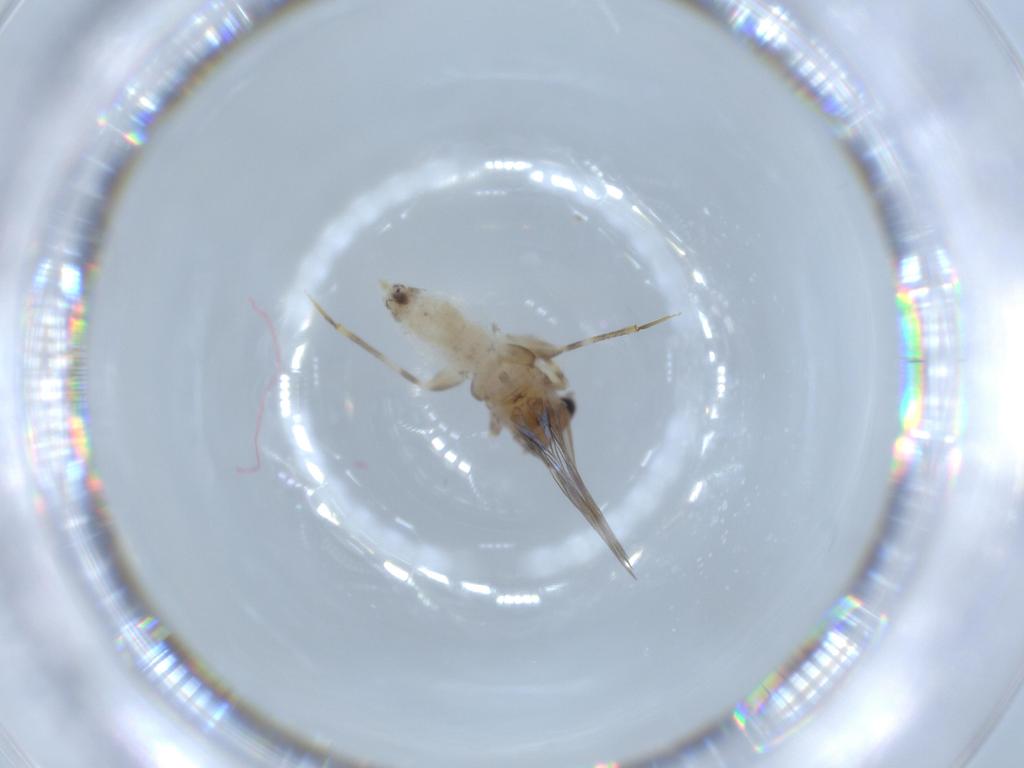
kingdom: Animalia
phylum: Arthropoda
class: Insecta
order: Psocodea
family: Lepidopsocidae
